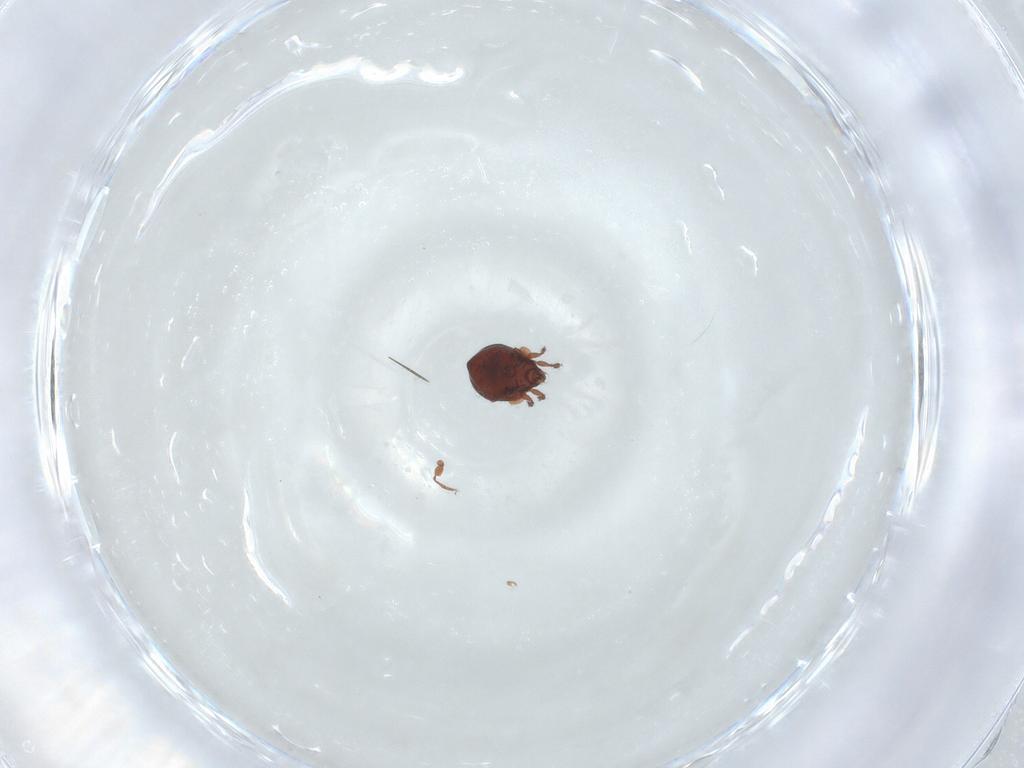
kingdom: Animalia
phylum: Arthropoda
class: Arachnida
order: Sarcoptiformes
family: Humerobatidae
